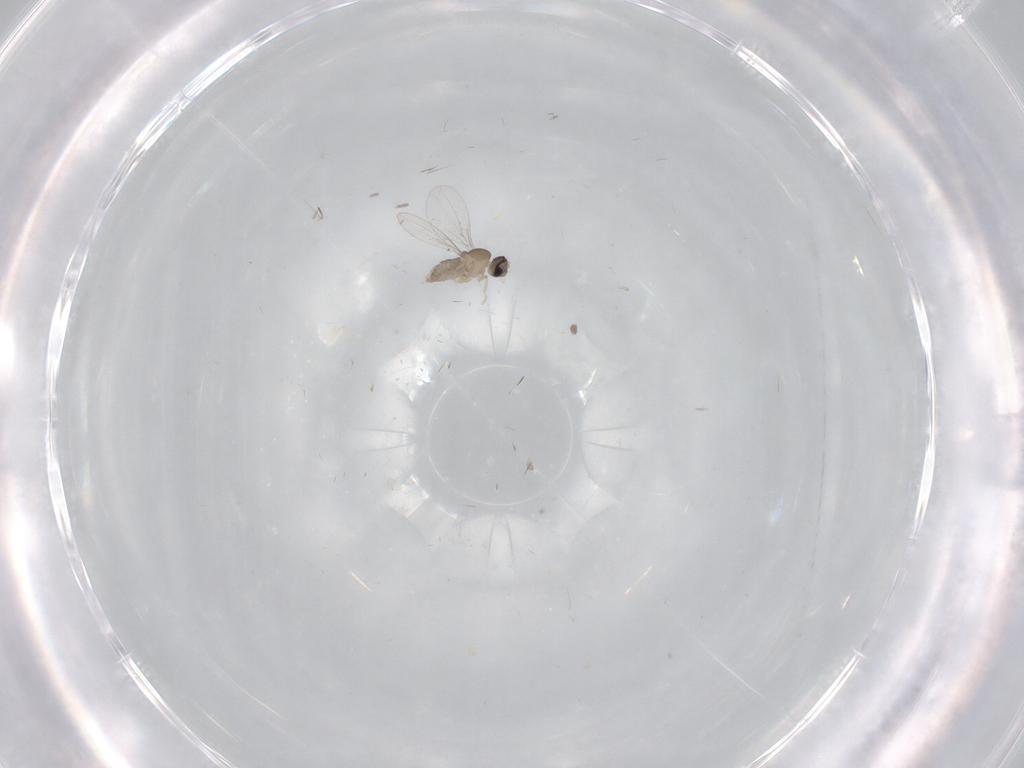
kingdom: Animalia
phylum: Arthropoda
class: Insecta
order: Diptera
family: Cecidomyiidae
